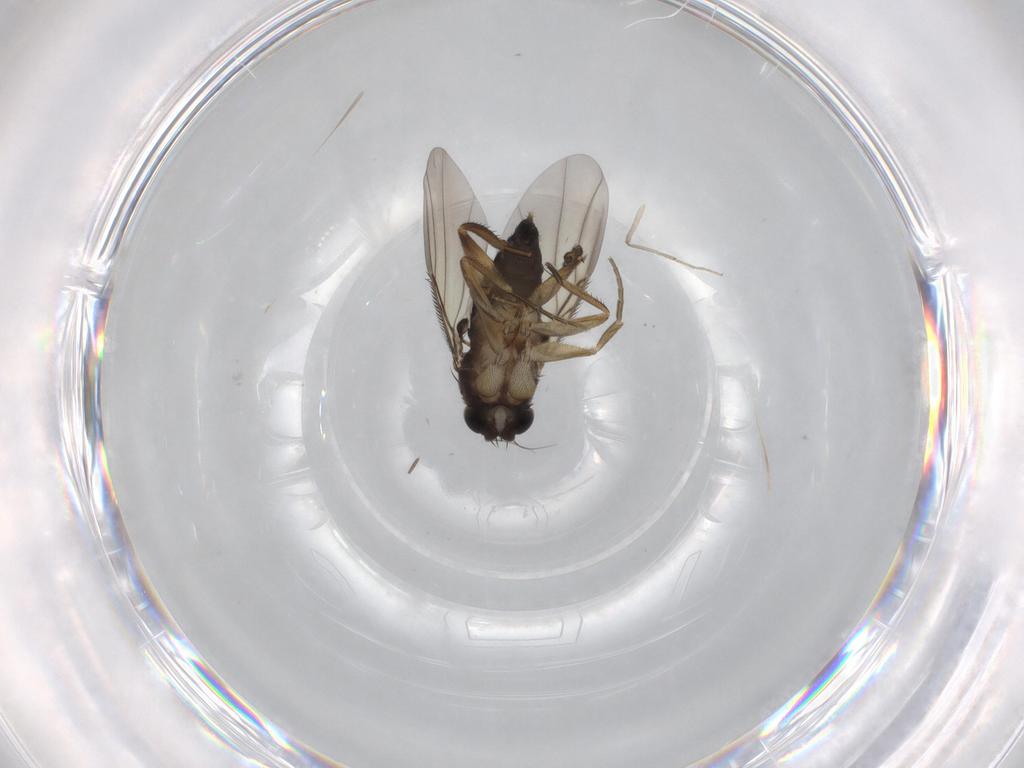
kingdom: Animalia
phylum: Arthropoda
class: Insecta
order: Diptera
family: Phoridae
